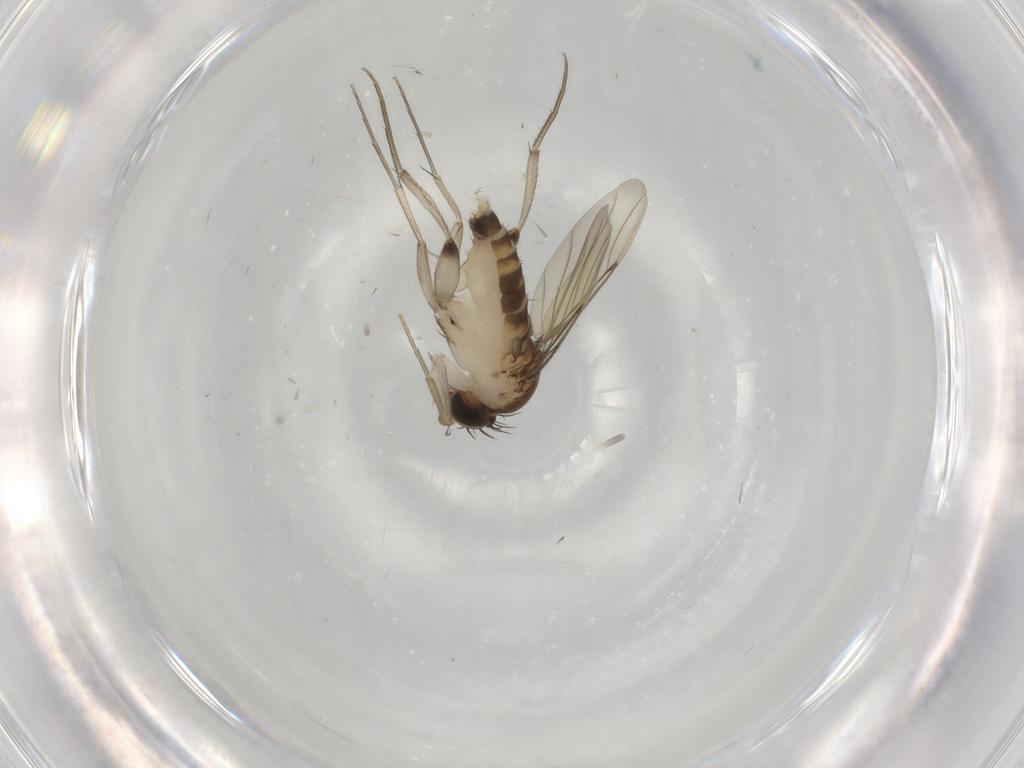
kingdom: Animalia
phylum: Arthropoda
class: Insecta
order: Diptera
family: Phoridae
